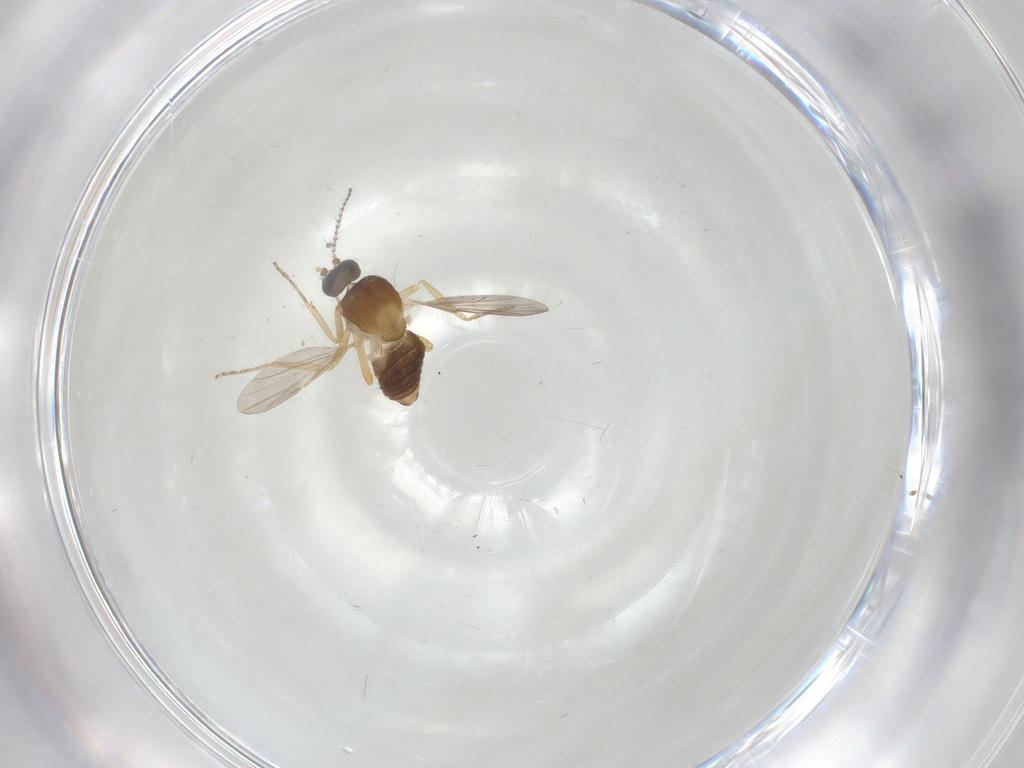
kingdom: Animalia
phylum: Arthropoda
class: Insecta
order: Diptera
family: Ceratopogonidae
